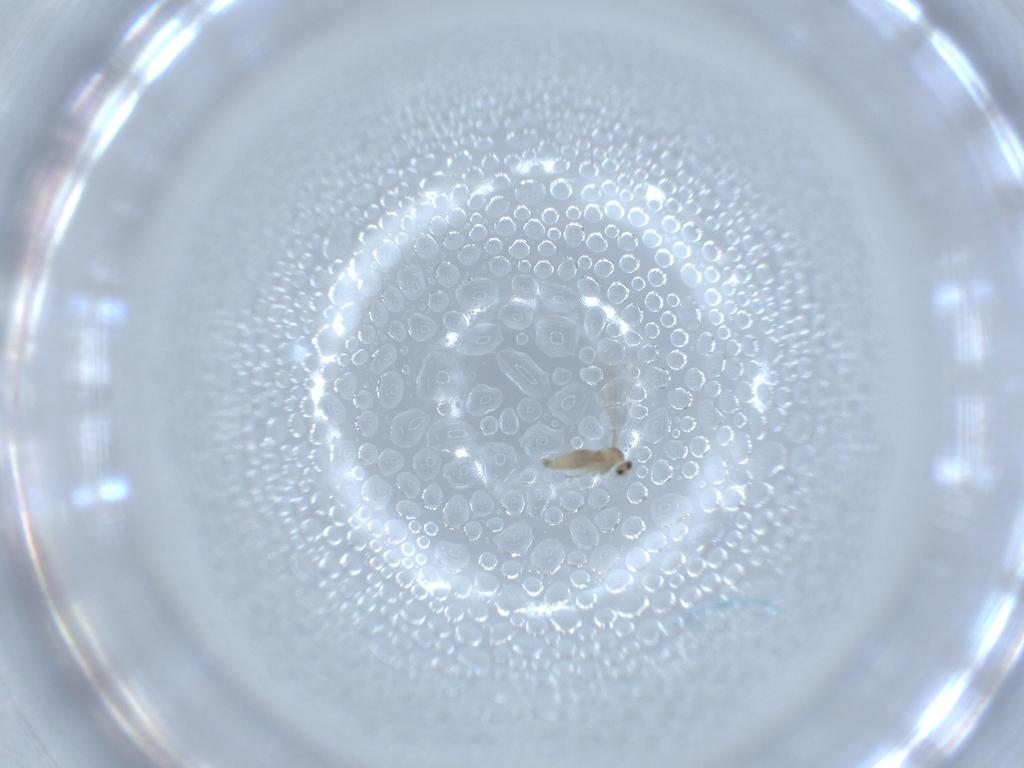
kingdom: Animalia
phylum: Arthropoda
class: Insecta
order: Diptera
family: Cecidomyiidae
